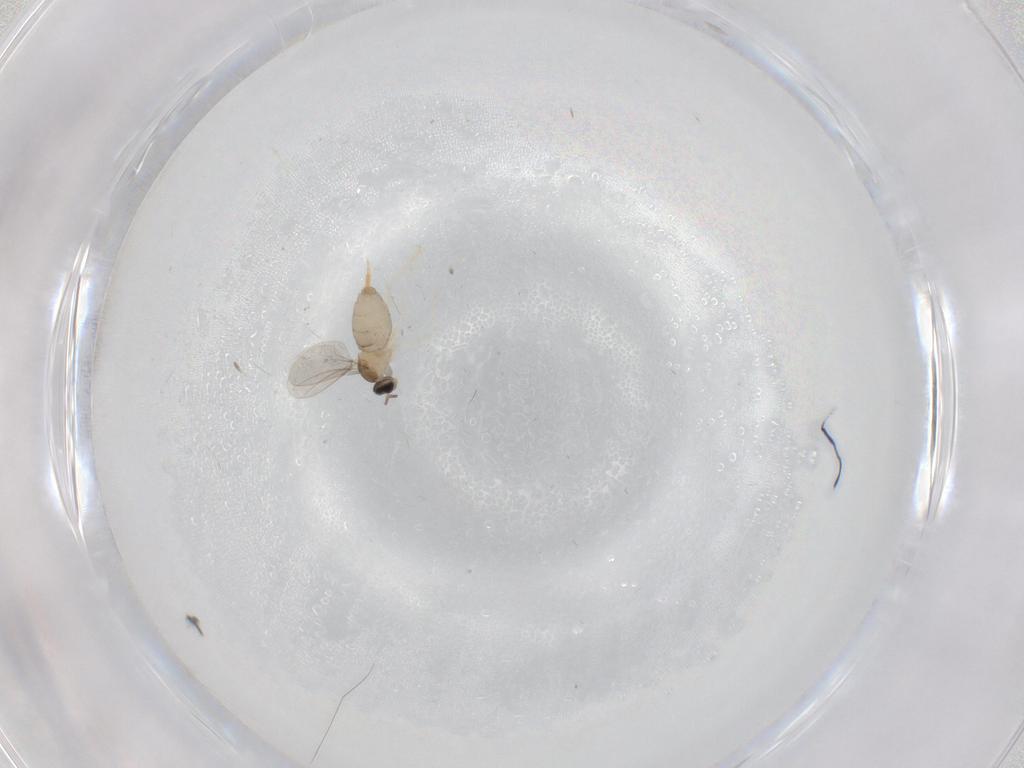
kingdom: Animalia
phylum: Arthropoda
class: Insecta
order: Diptera
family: Cecidomyiidae
